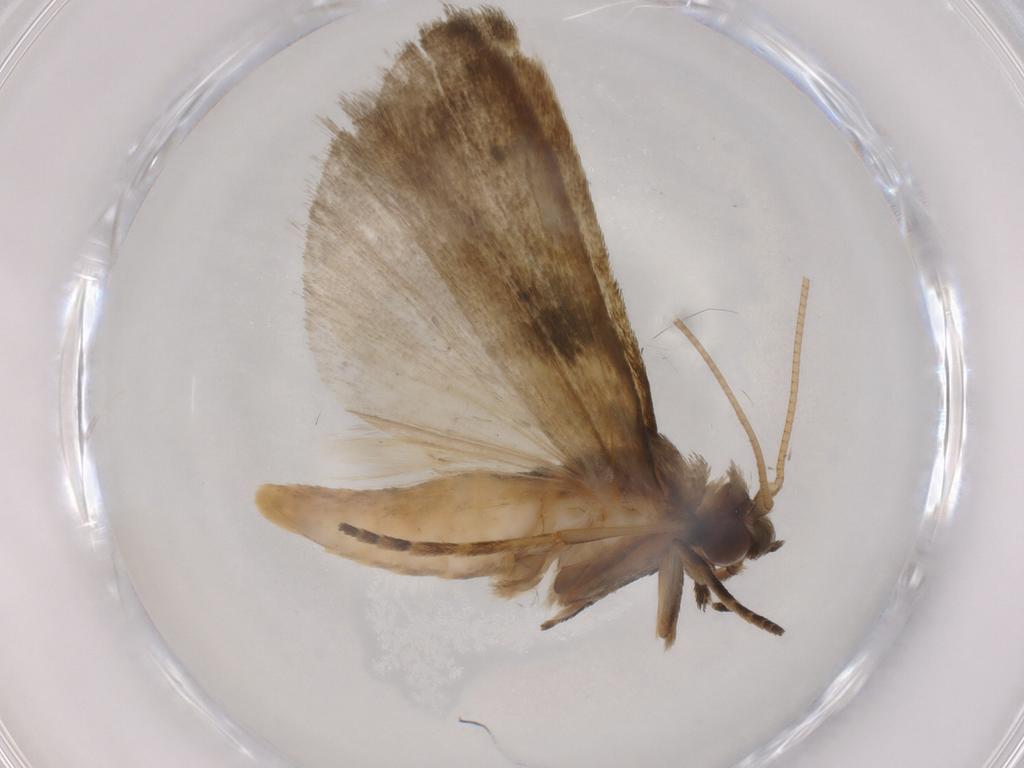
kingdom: Animalia
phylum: Arthropoda
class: Insecta
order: Lepidoptera
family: Noctuidae
